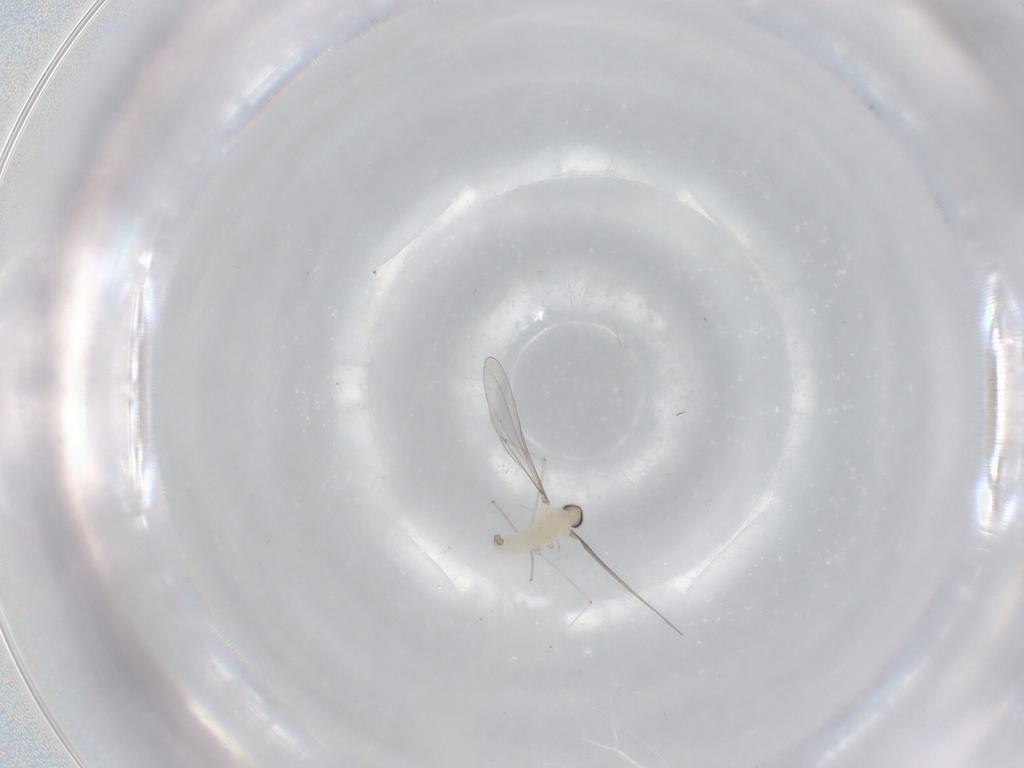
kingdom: Animalia
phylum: Arthropoda
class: Insecta
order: Diptera
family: Cecidomyiidae
